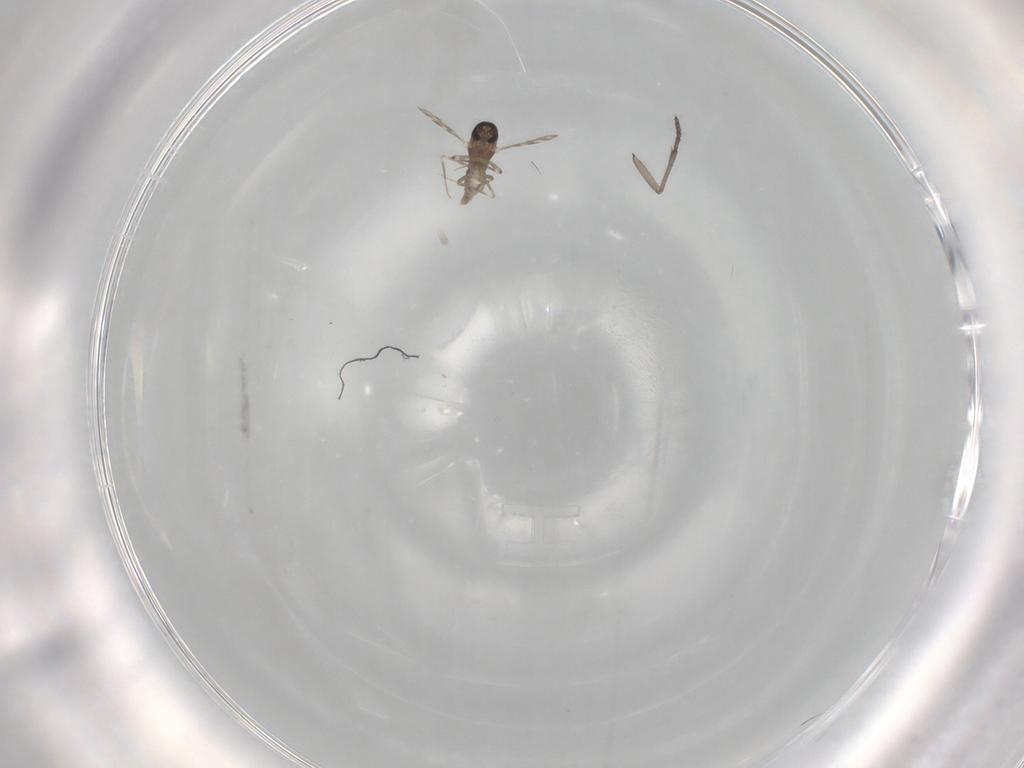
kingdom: Animalia
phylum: Arthropoda
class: Insecta
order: Diptera
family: Sciaridae
